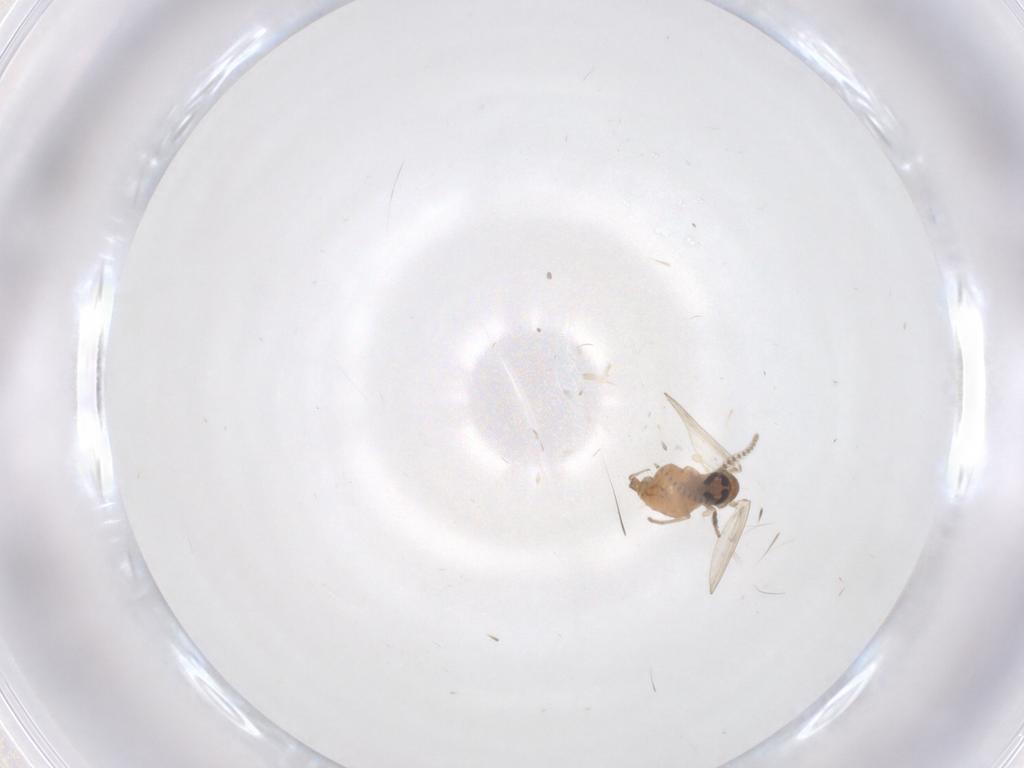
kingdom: Animalia
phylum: Arthropoda
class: Insecta
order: Diptera
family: Psychodidae
